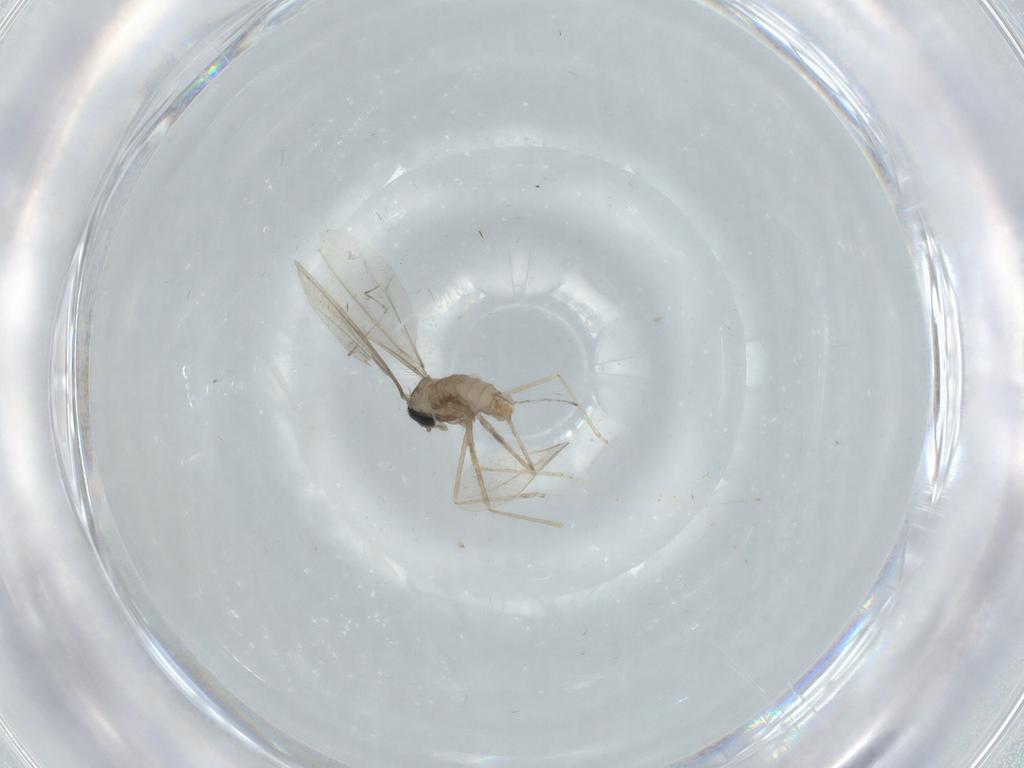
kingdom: Animalia
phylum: Arthropoda
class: Insecta
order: Diptera
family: Cecidomyiidae
